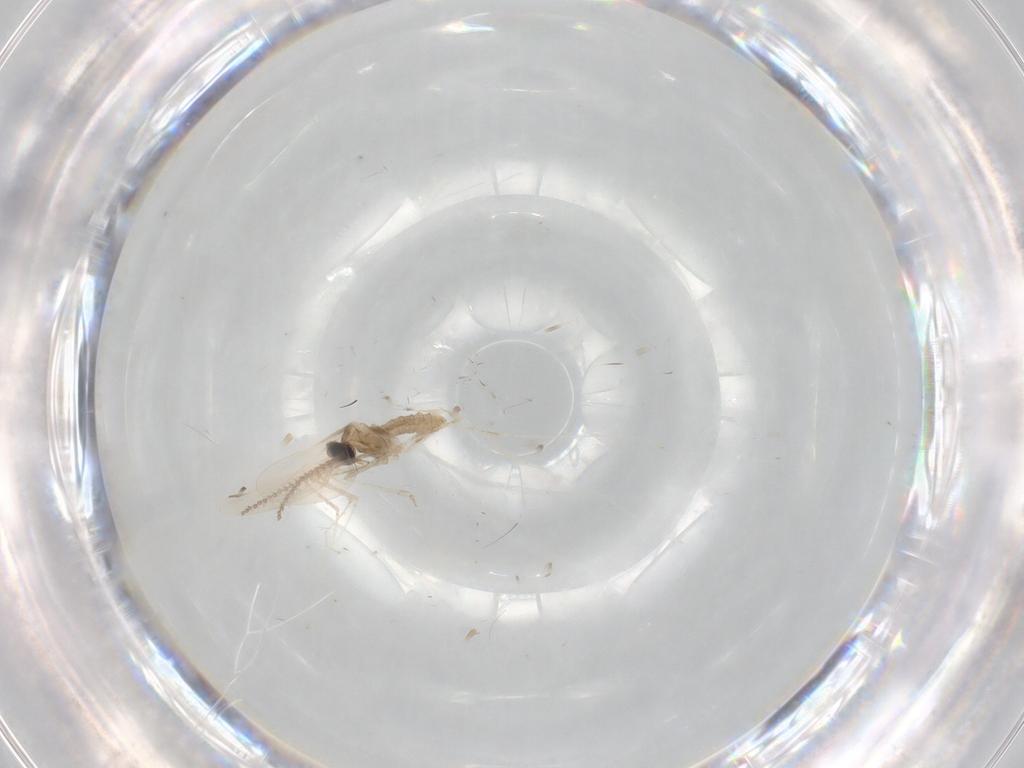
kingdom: Animalia
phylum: Arthropoda
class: Insecta
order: Diptera
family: Cecidomyiidae
